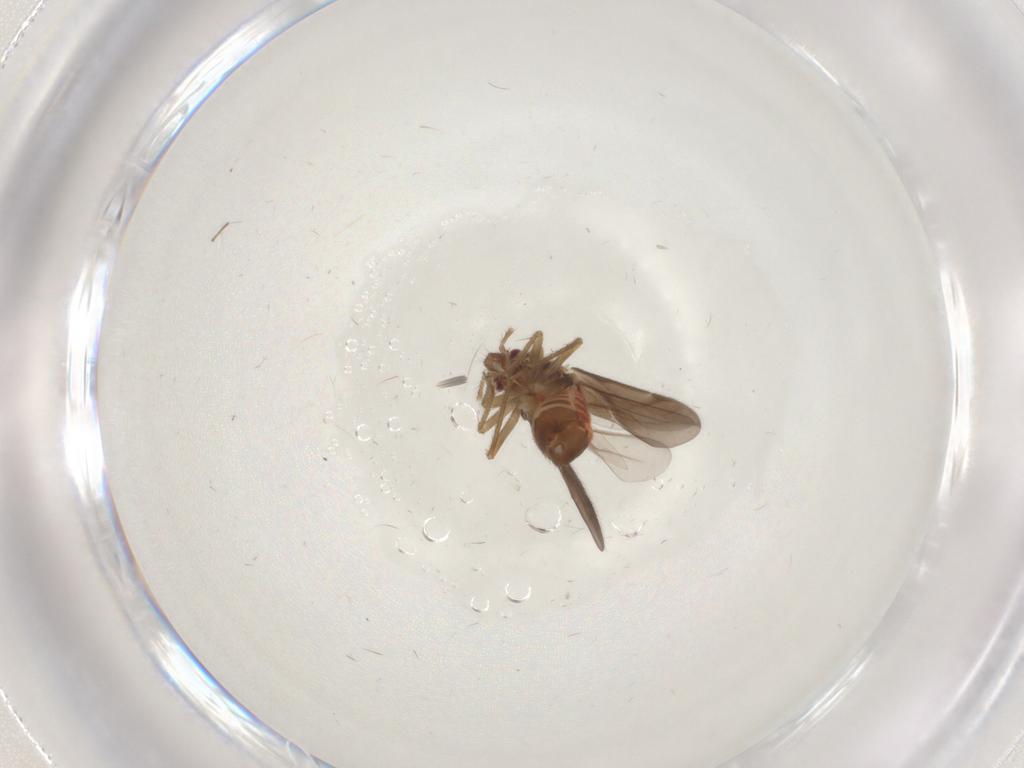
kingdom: Animalia
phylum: Arthropoda
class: Insecta
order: Hemiptera
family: Ceratocombidae
